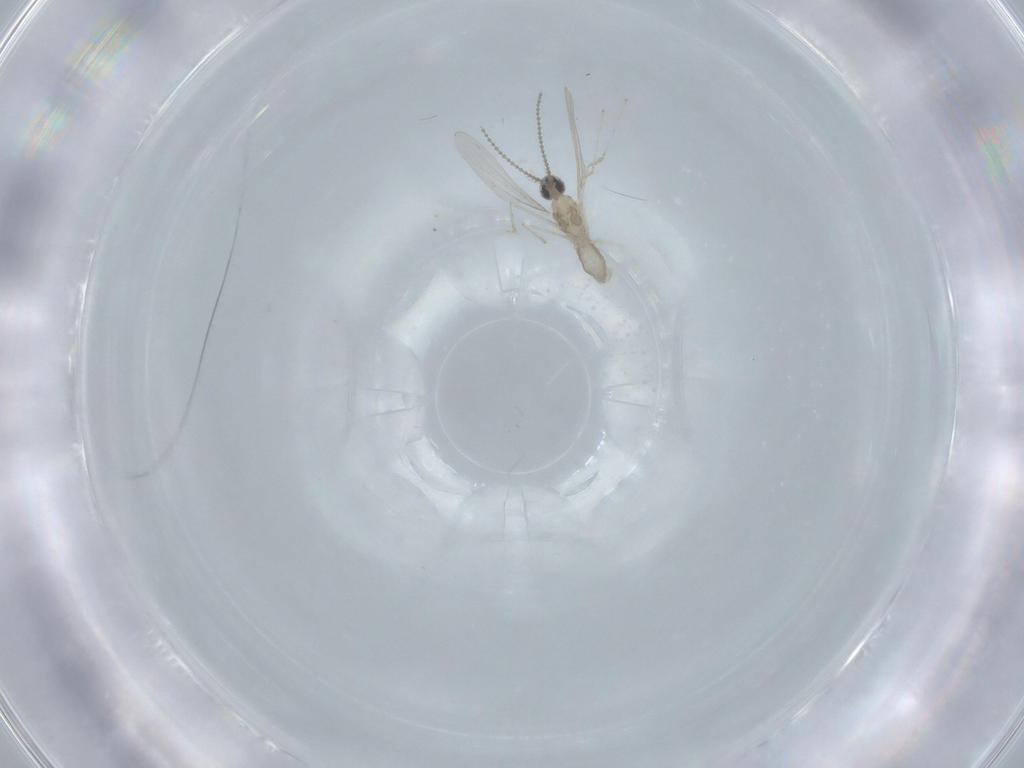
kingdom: Animalia
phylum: Arthropoda
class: Insecta
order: Diptera
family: Cecidomyiidae
